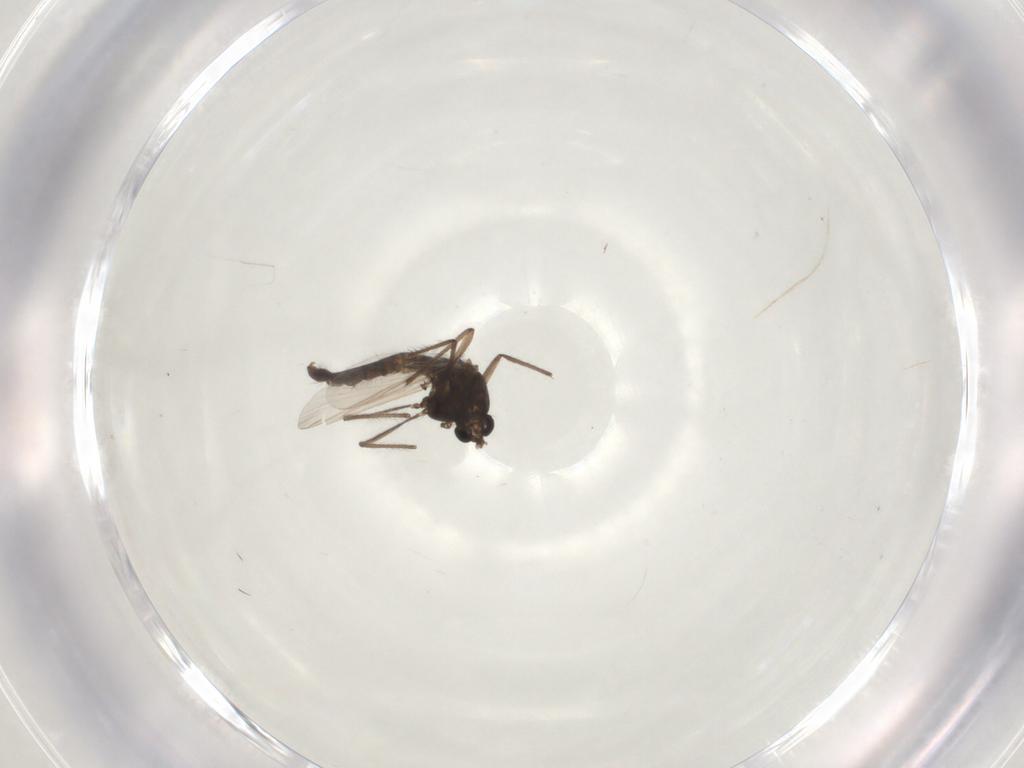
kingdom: Animalia
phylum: Arthropoda
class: Insecta
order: Diptera
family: Chironomidae
